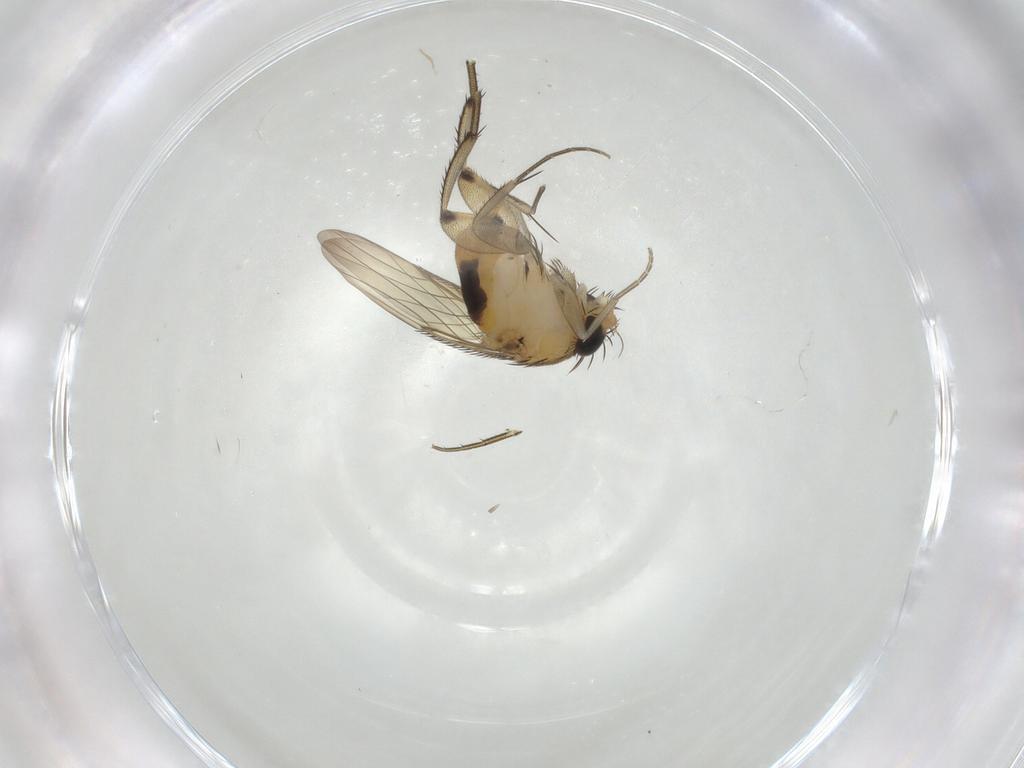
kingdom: Animalia
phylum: Arthropoda
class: Insecta
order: Diptera
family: Phoridae
